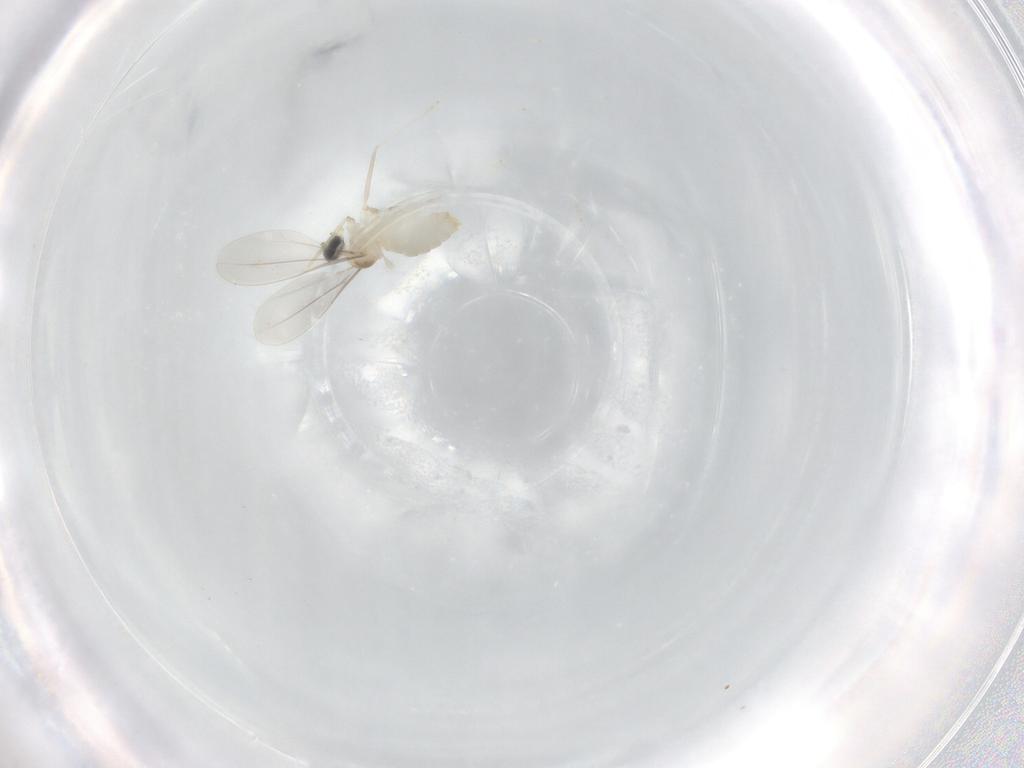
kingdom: Animalia
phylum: Arthropoda
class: Insecta
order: Diptera
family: Cecidomyiidae
